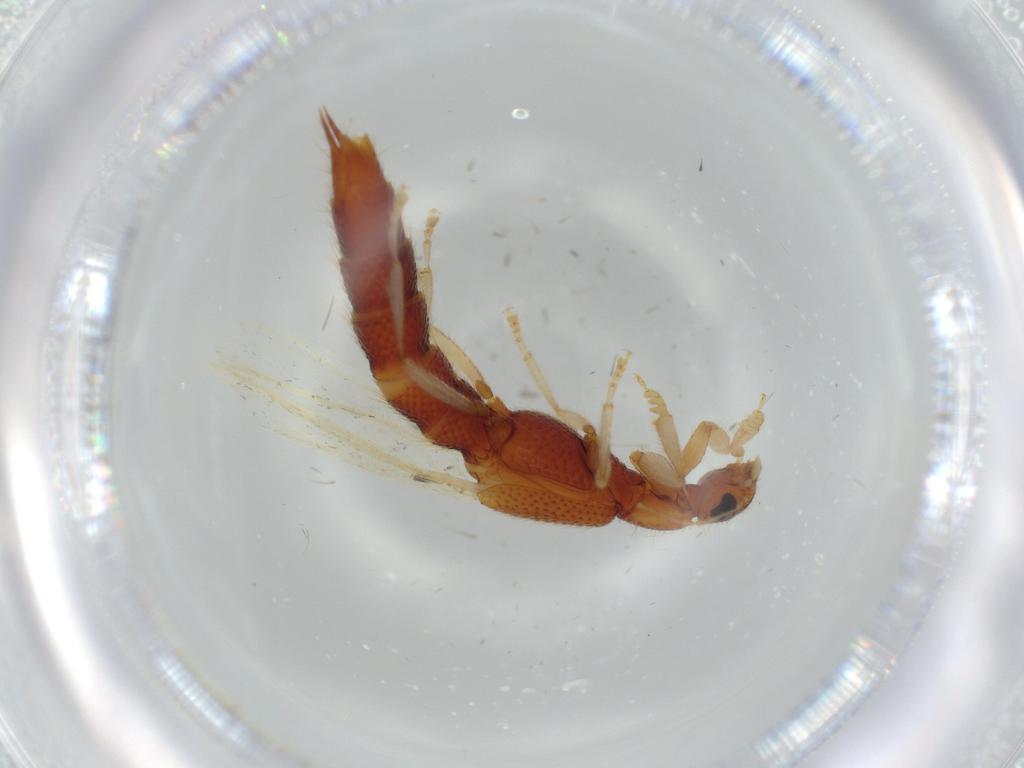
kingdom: Animalia
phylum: Arthropoda
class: Insecta
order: Coleoptera
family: Staphylinidae
